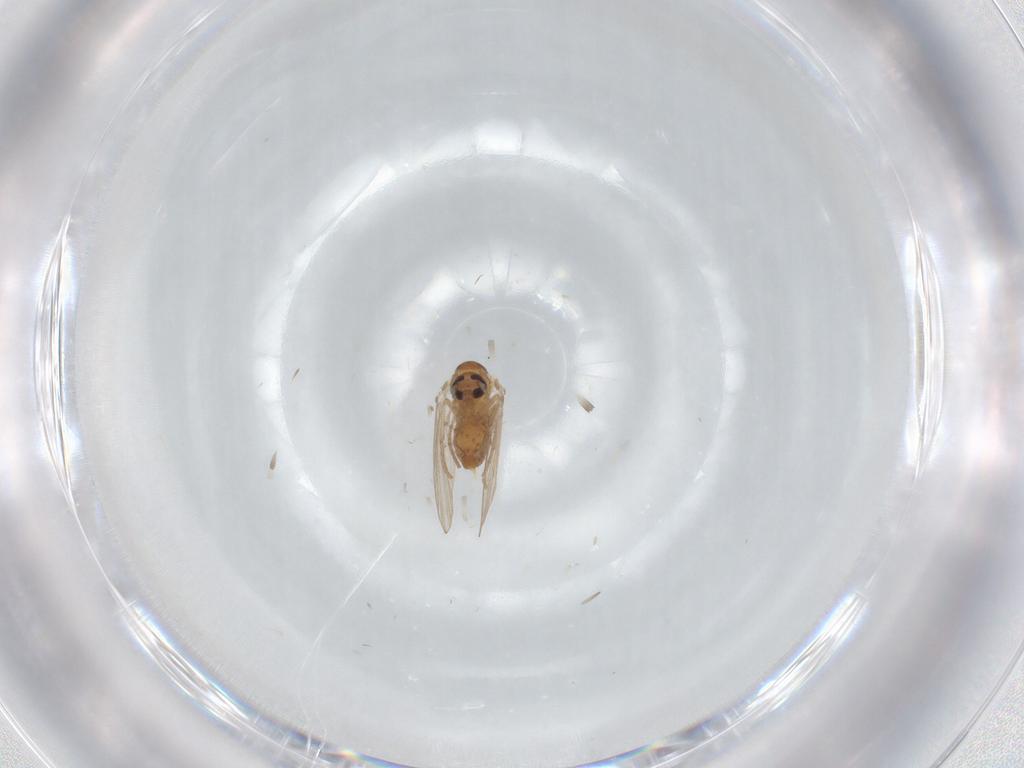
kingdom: Animalia
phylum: Arthropoda
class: Insecta
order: Diptera
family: Psychodidae
